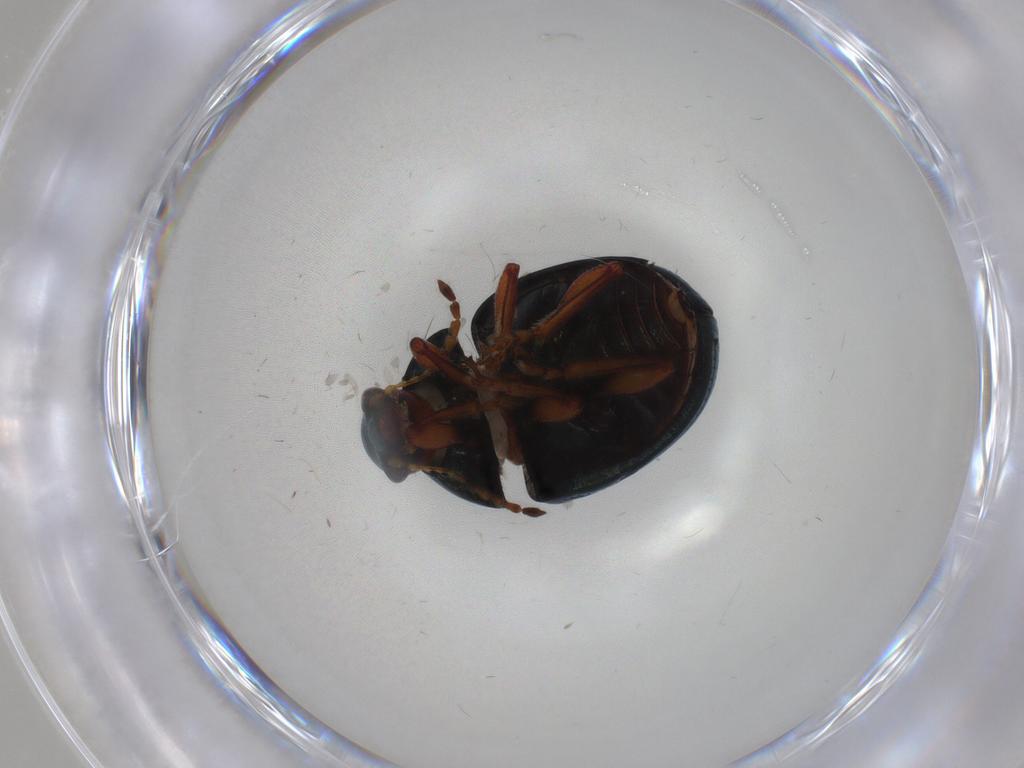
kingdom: Animalia
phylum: Arthropoda
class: Insecta
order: Coleoptera
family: Chrysomelidae
